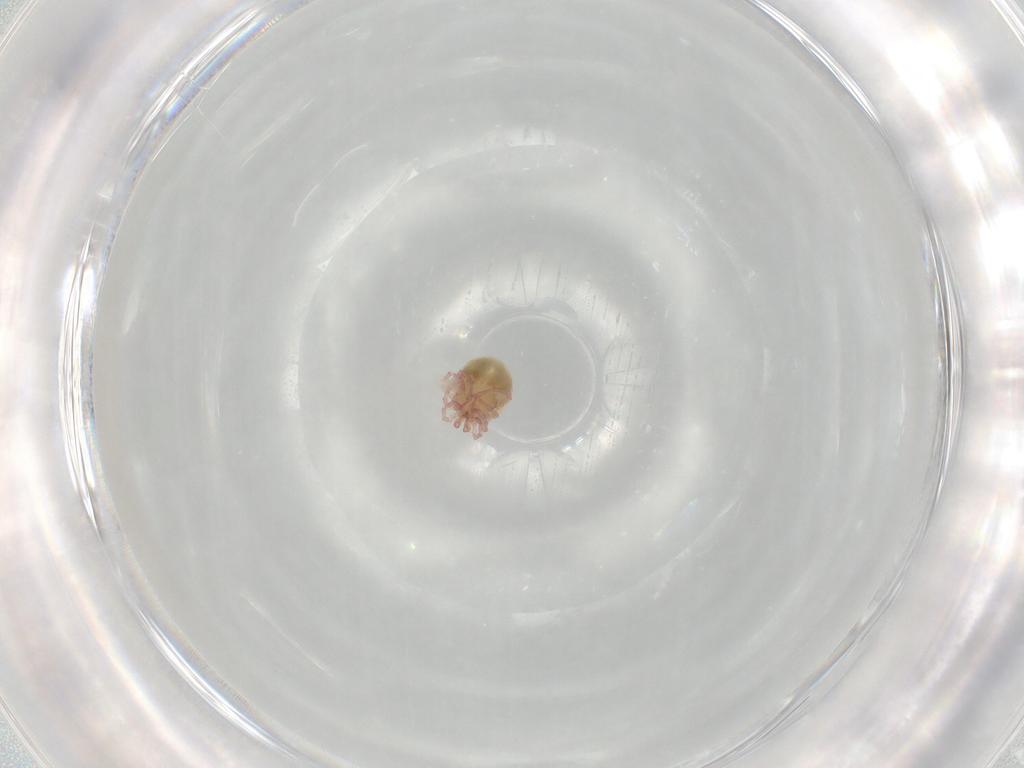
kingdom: Animalia
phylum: Arthropoda
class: Arachnida
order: Trombidiformes
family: Pionidae
